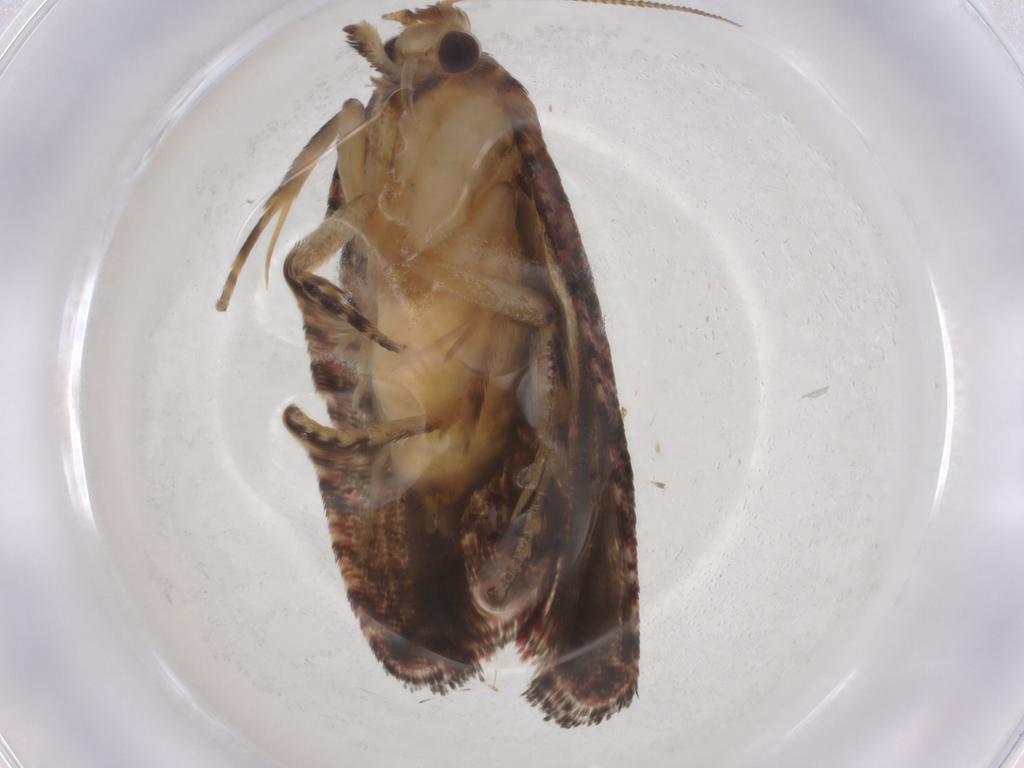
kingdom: Animalia
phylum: Arthropoda
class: Insecta
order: Lepidoptera
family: Tortricidae
